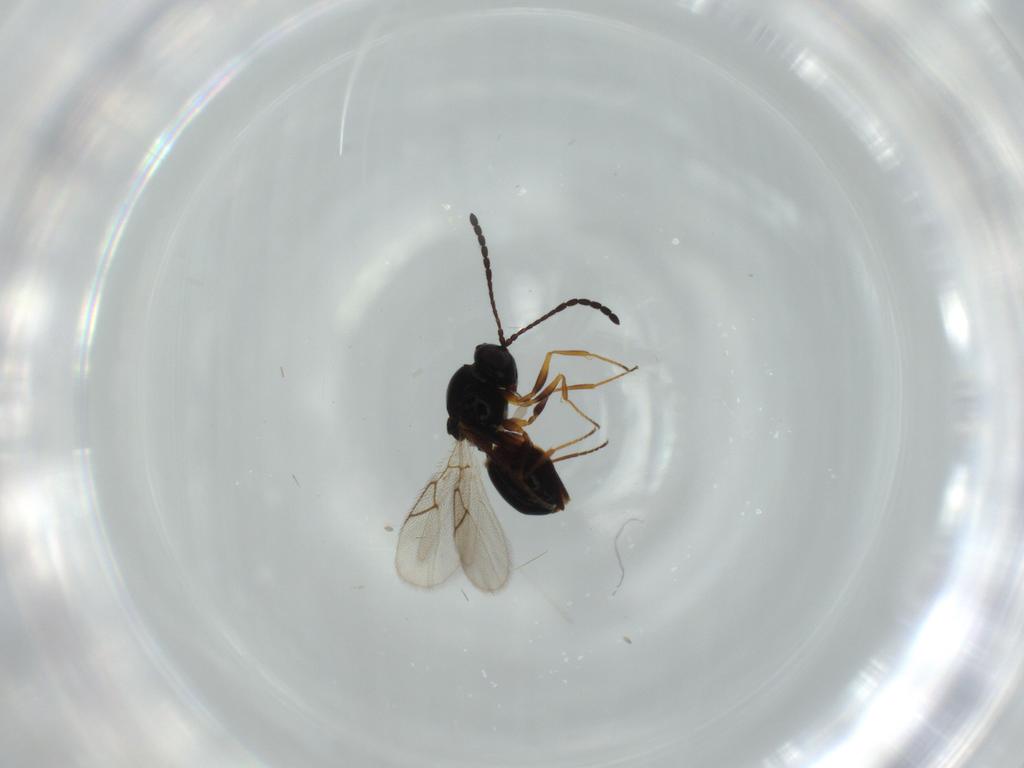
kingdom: Animalia
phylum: Arthropoda
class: Insecta
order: Hymenoptera
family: Figitidae
